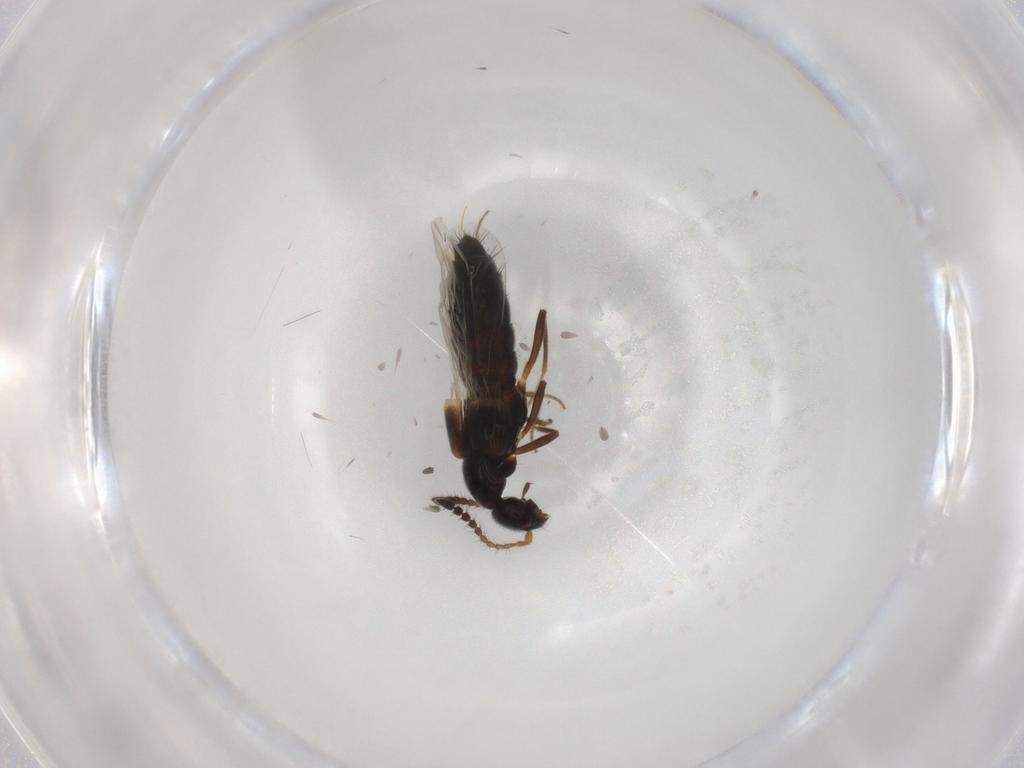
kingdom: Animalia
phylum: Arthropoda
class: Insecta
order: Coleoptera
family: Staphylinidae
